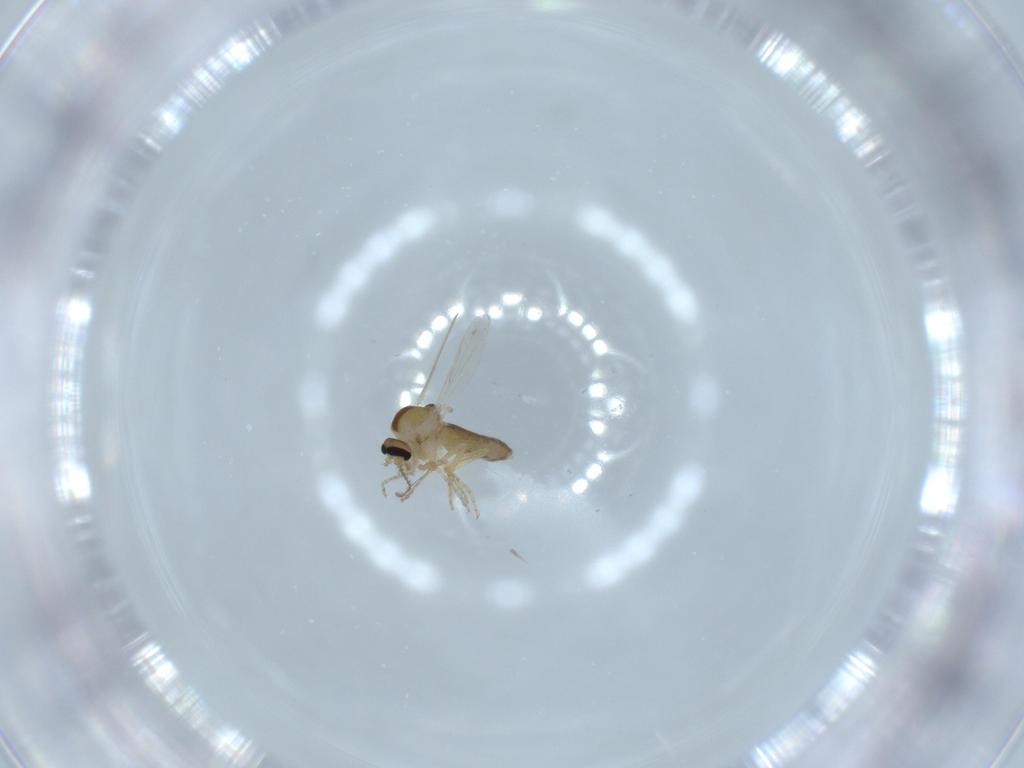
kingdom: Animalia
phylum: Arthropoda
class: Insecta
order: Diptera
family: Ceratopogonidae
